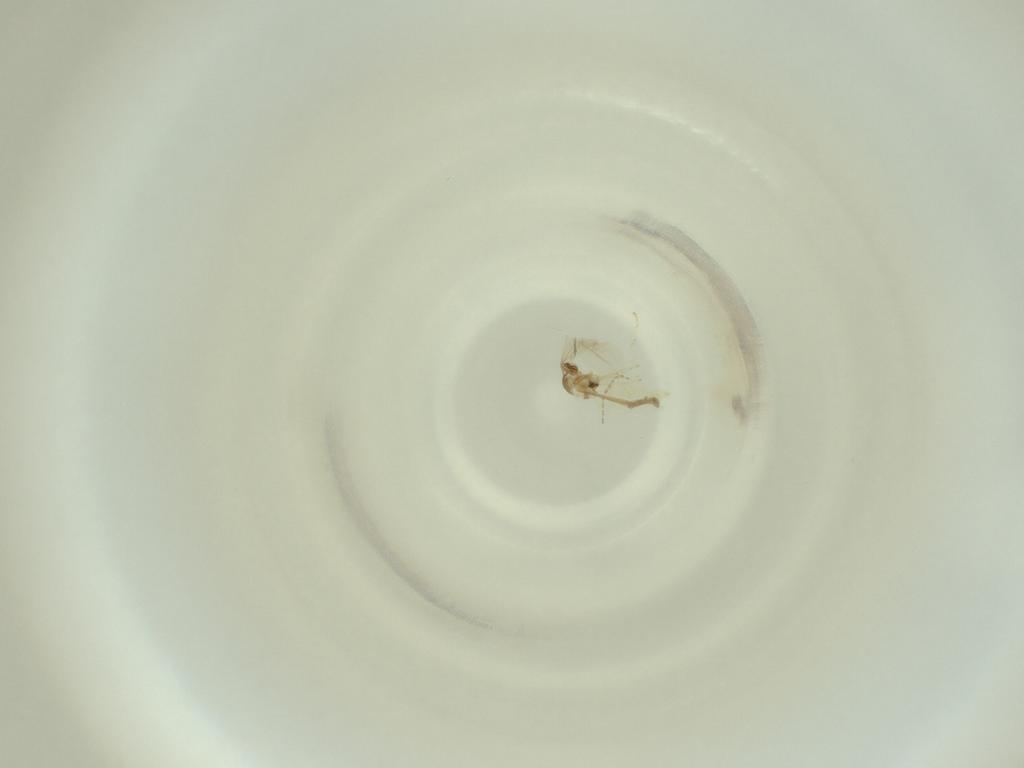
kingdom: Animalia
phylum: Arthropoda
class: Insecta
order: Diptera
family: Cecidomyiidae
